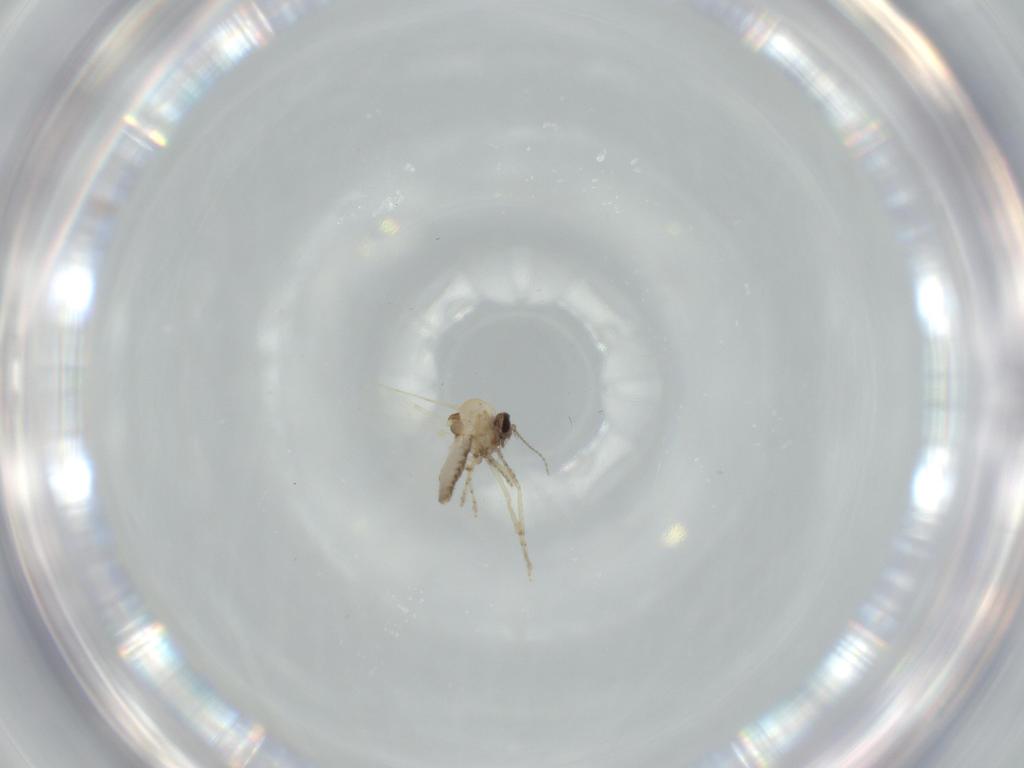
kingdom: Animalia
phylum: Arthropoda
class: Insecta
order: Diptera
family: Ceratopogonidae
